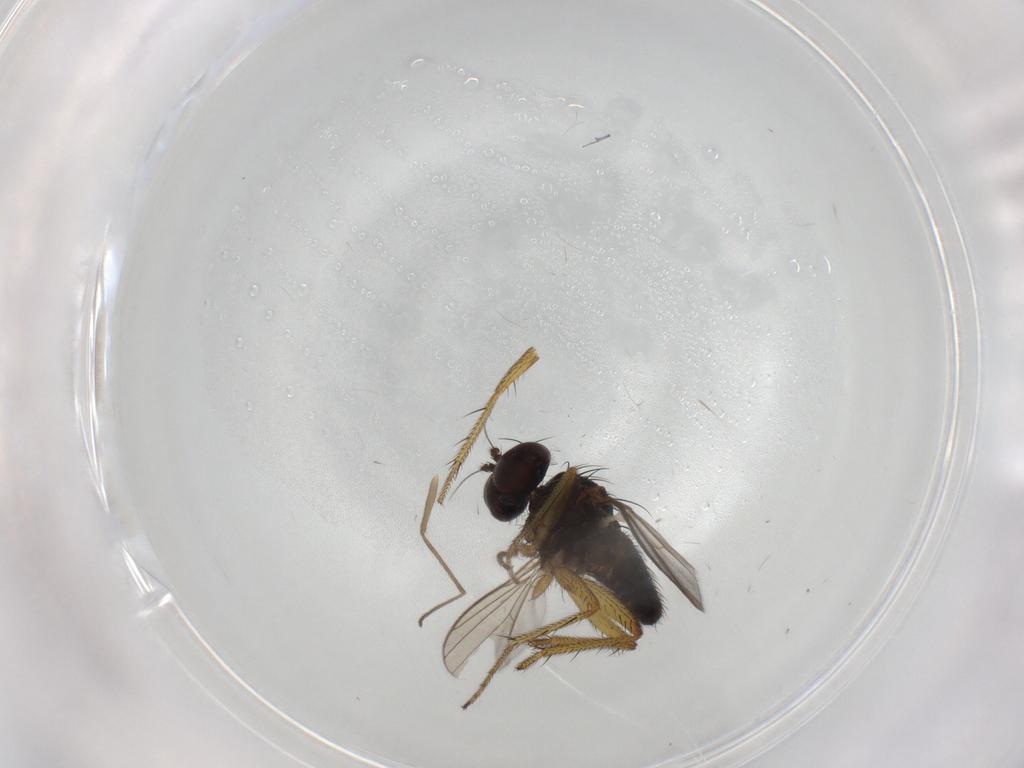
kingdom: Animalia
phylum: Arthropoda
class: Insecta
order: Diptera
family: Dolichopodidae
